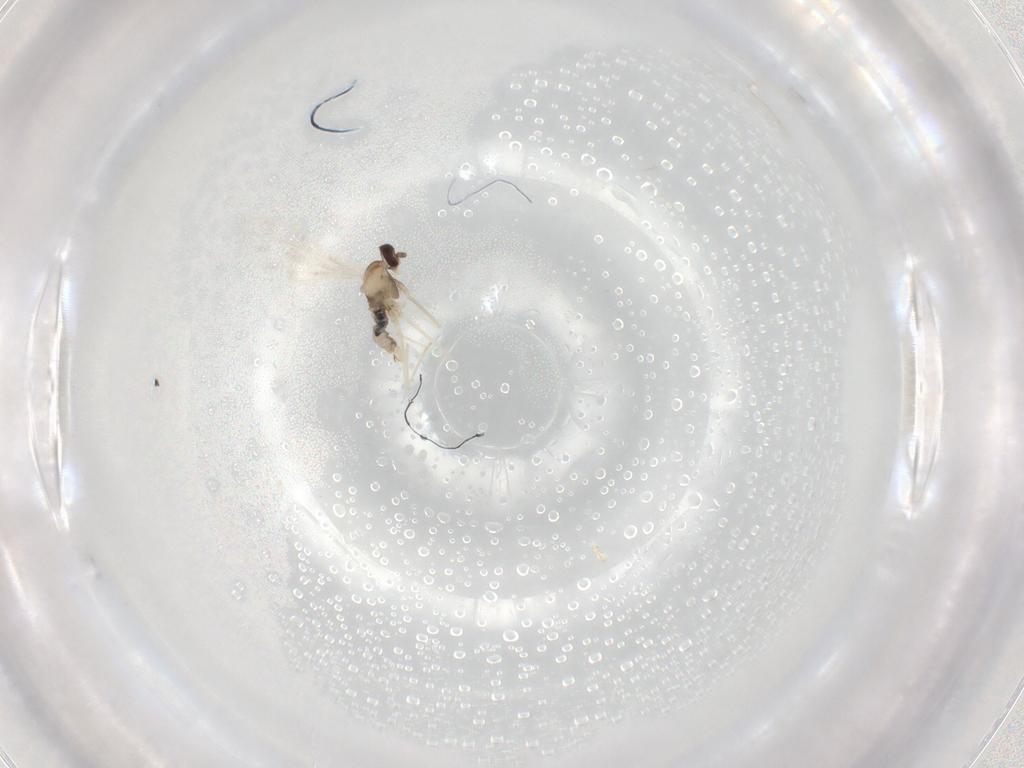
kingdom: Animalia
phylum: Arthropoda
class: Insecta
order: Diptera
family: Cecidomyiidae
